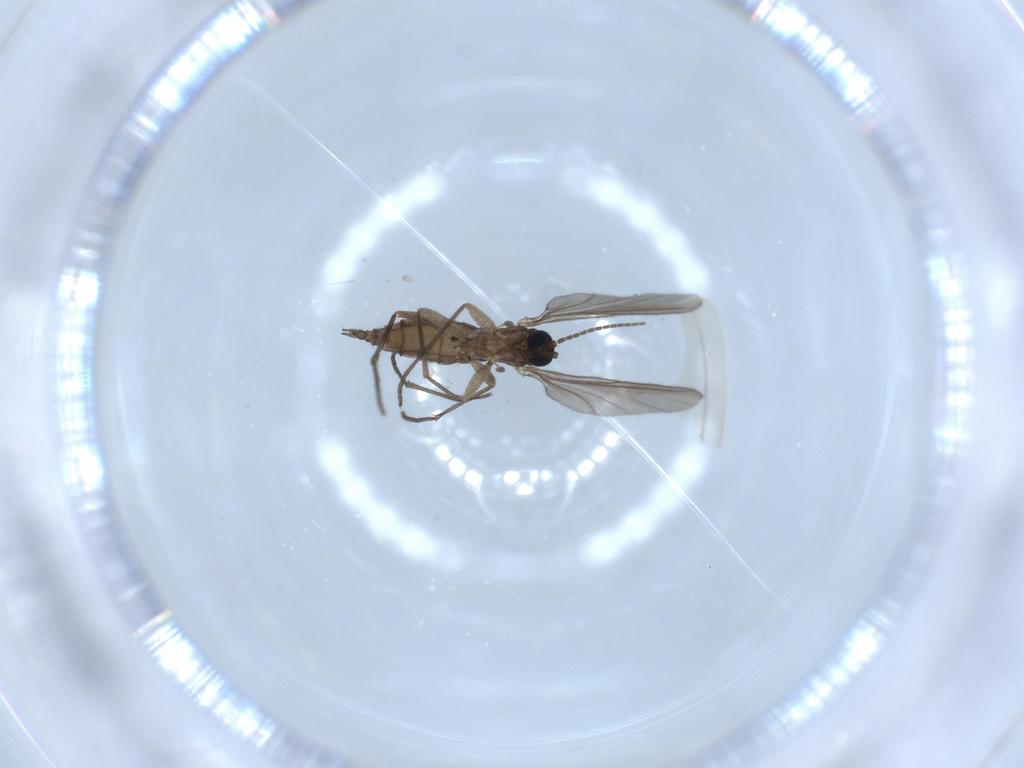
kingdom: Animalia
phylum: Arthropoda
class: Insecta
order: Diptera
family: Sciaridae
